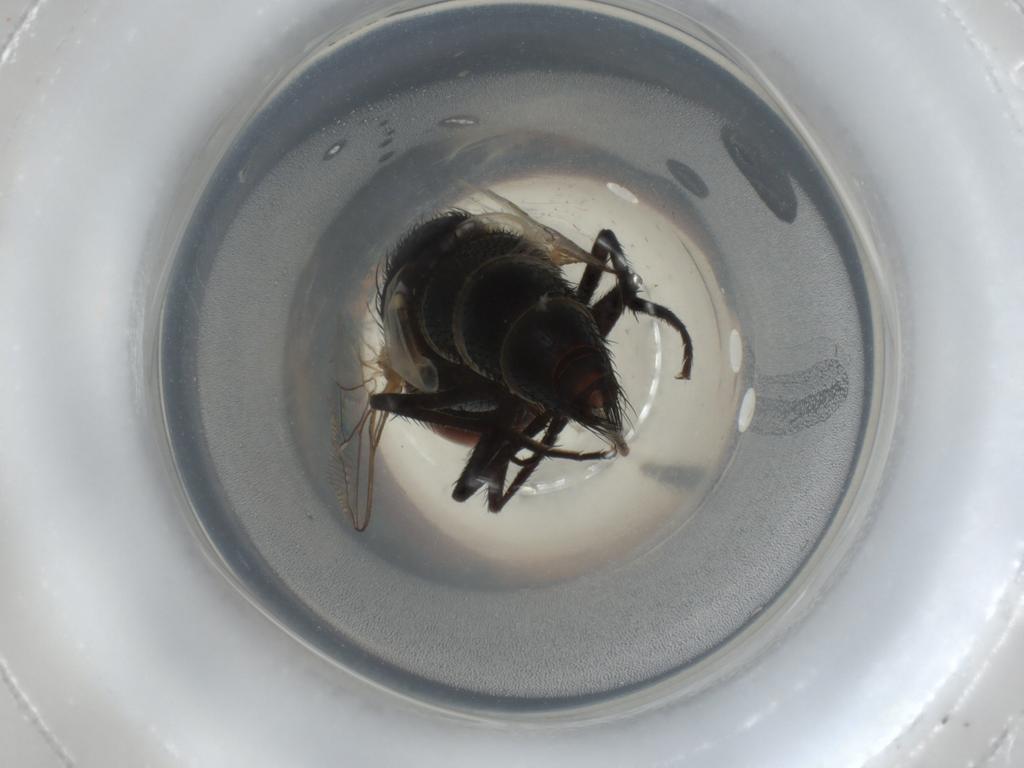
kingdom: Animalia
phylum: Arthropoda
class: Insecta
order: Diptera
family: Sarcophagidae
